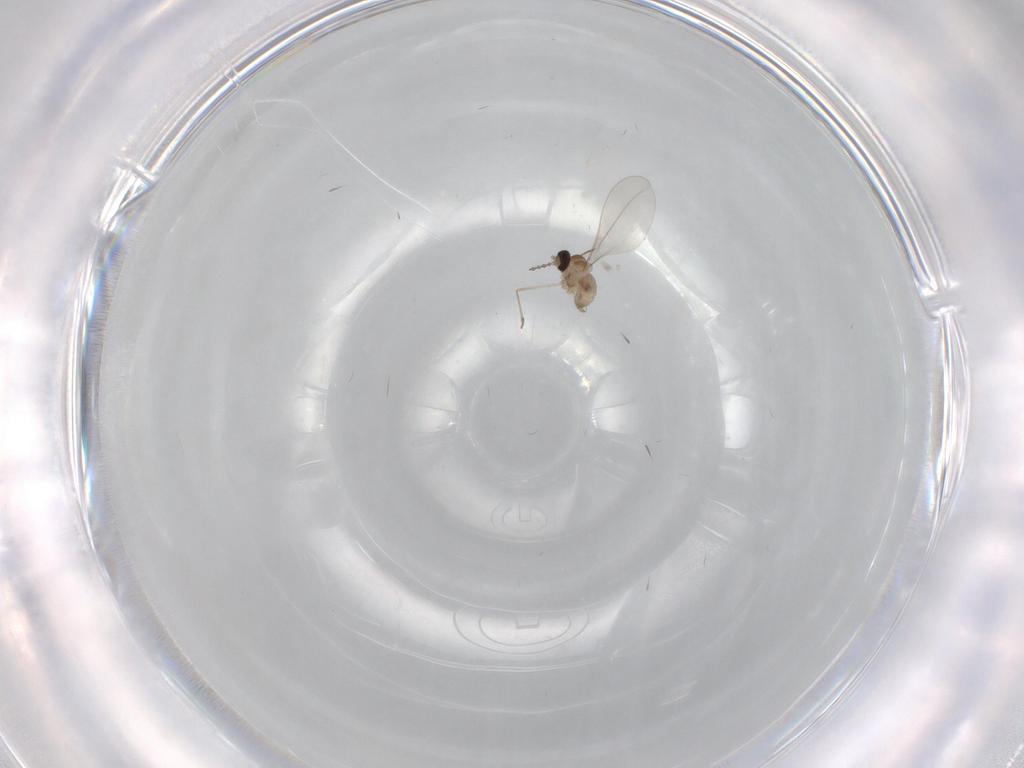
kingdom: Animalia
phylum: Arthropoda
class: Insecta
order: Diptera
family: Cecidomyiidae
